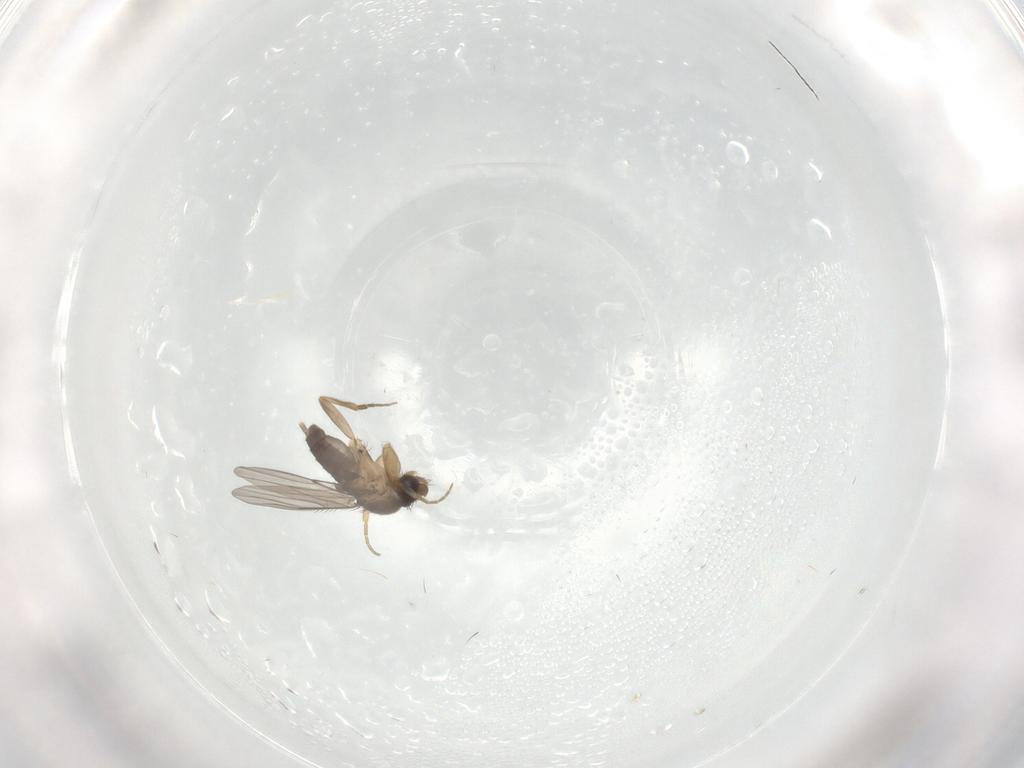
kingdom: Animalia
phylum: Arthropoda
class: Insecta
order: Diptera
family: Phoridae
